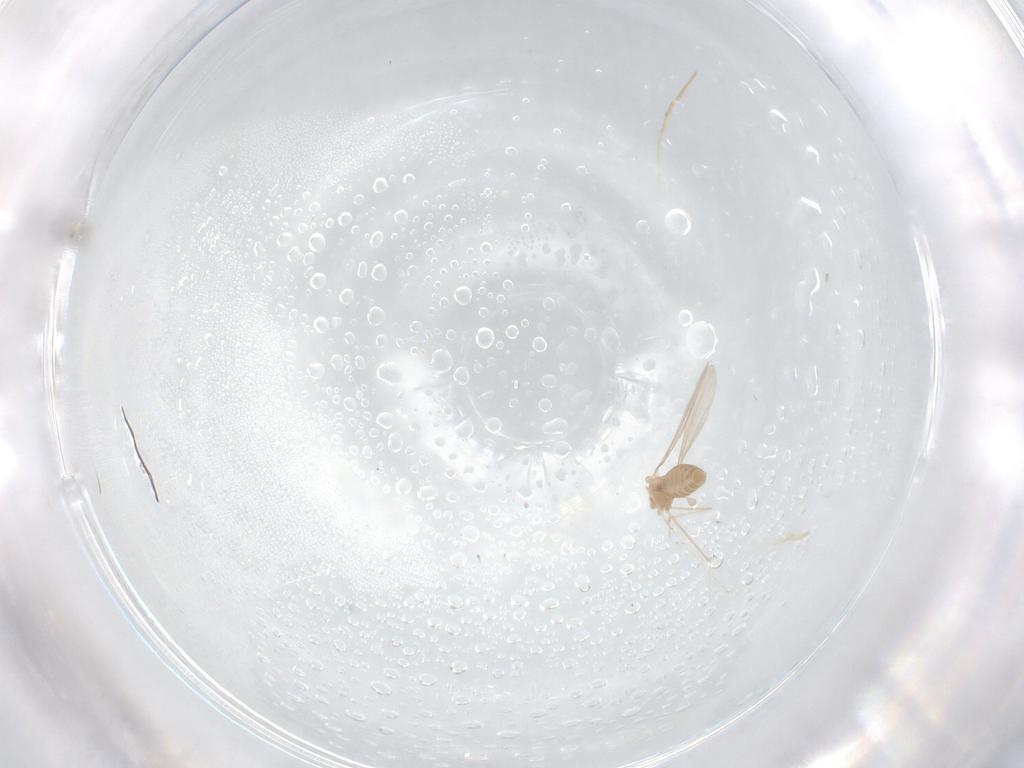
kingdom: Animalia
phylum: Arthropoda
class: Insecta
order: Diptera
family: Cecidomyiidae
